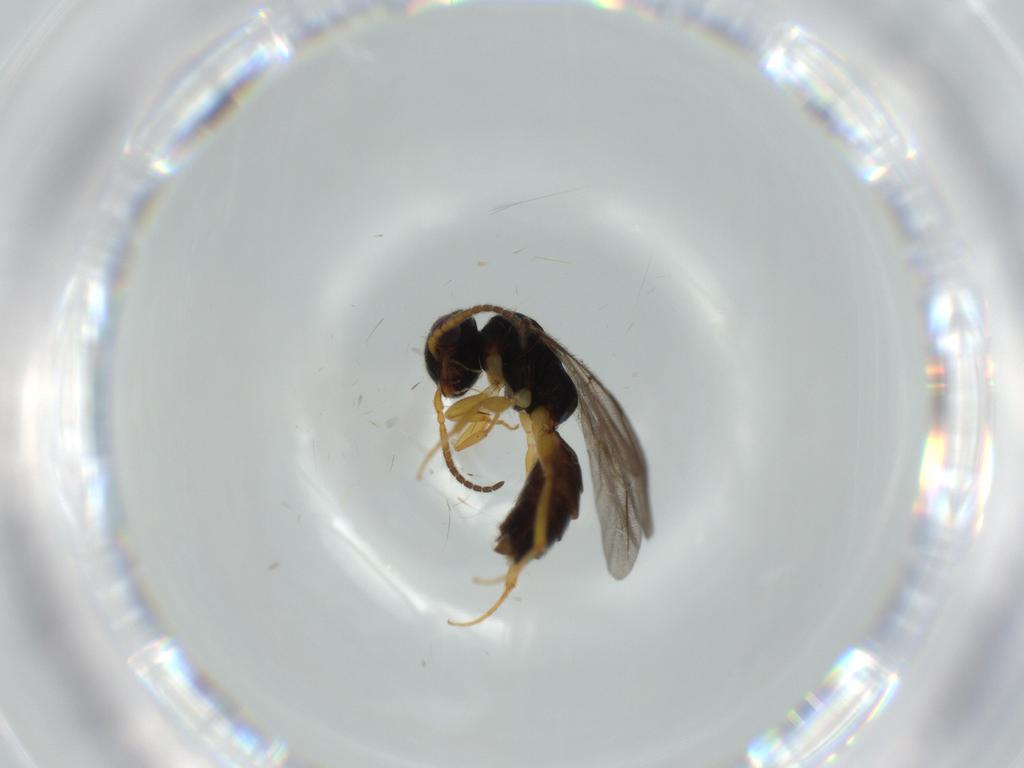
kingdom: Animalia
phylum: Arthropoda
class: Insecta
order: Hymenoptera
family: Bethylidae
